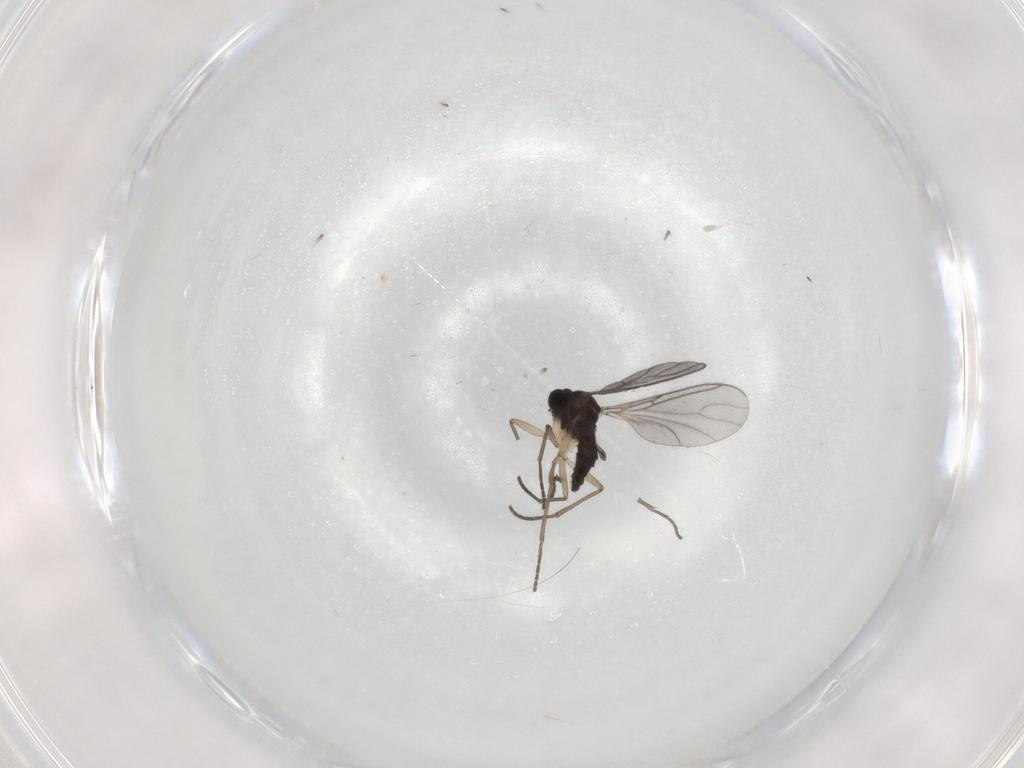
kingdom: Animalia
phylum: Arthropoda
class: Insecta
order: Diptera
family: Sciaridae
